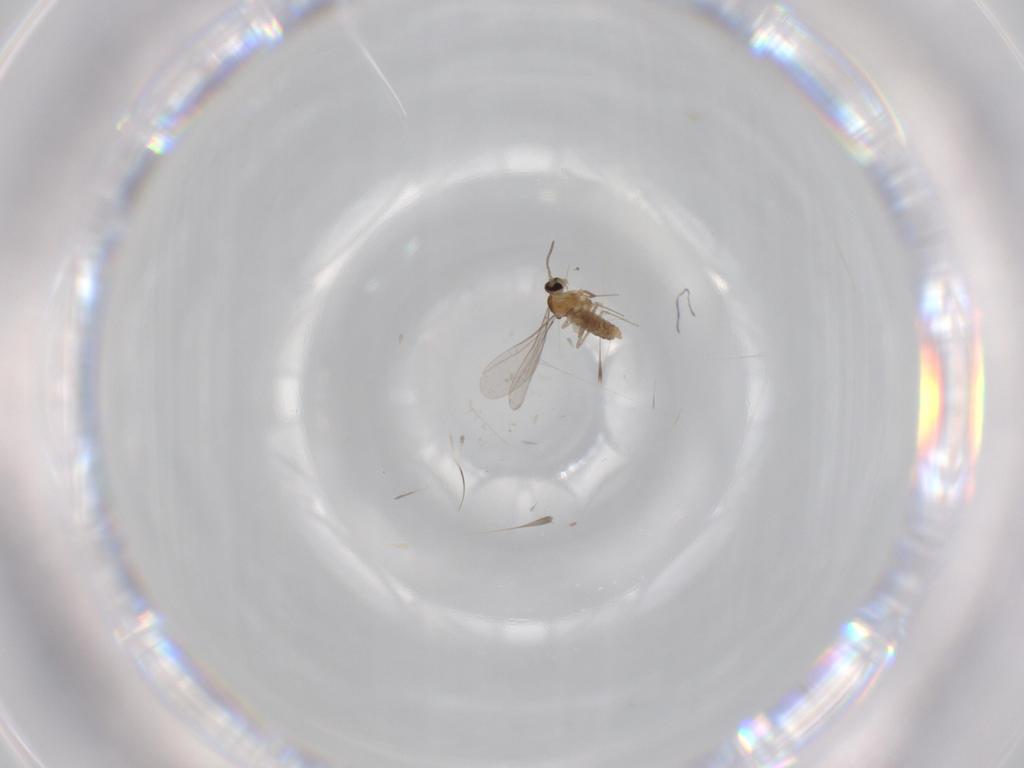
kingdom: Animalia
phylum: Arthropoda
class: Insecta
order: Diptera
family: Cecidomyiidae
